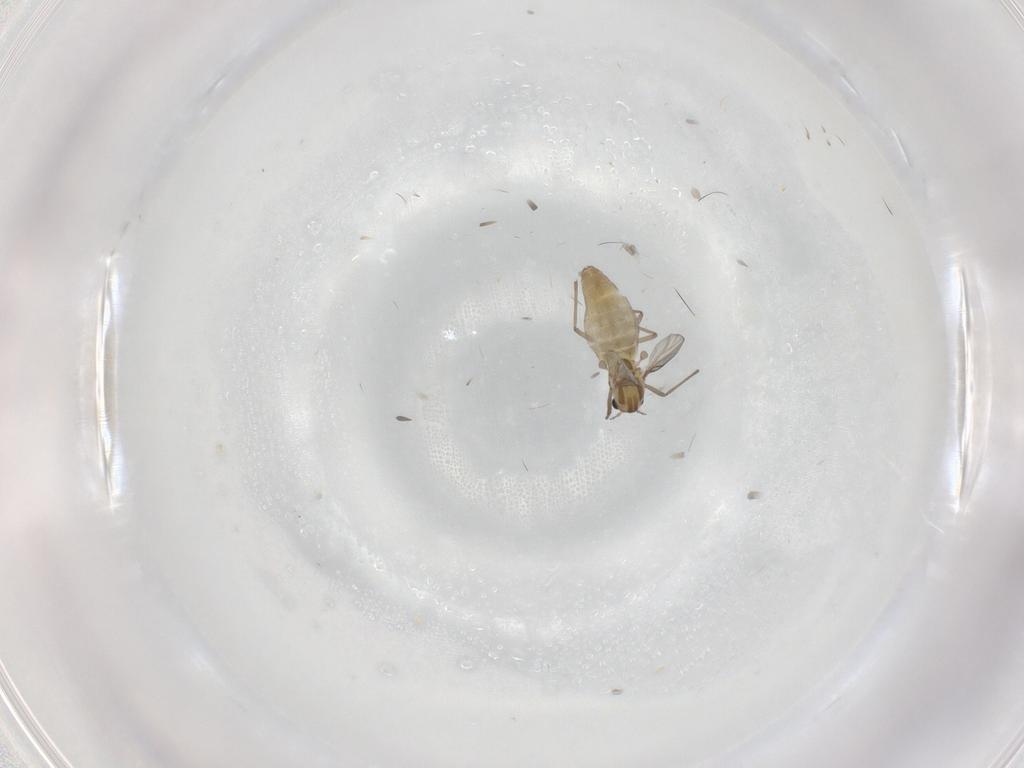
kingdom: Animalia
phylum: Arthropoda
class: Insecta
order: Diptera
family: Chironomidae
